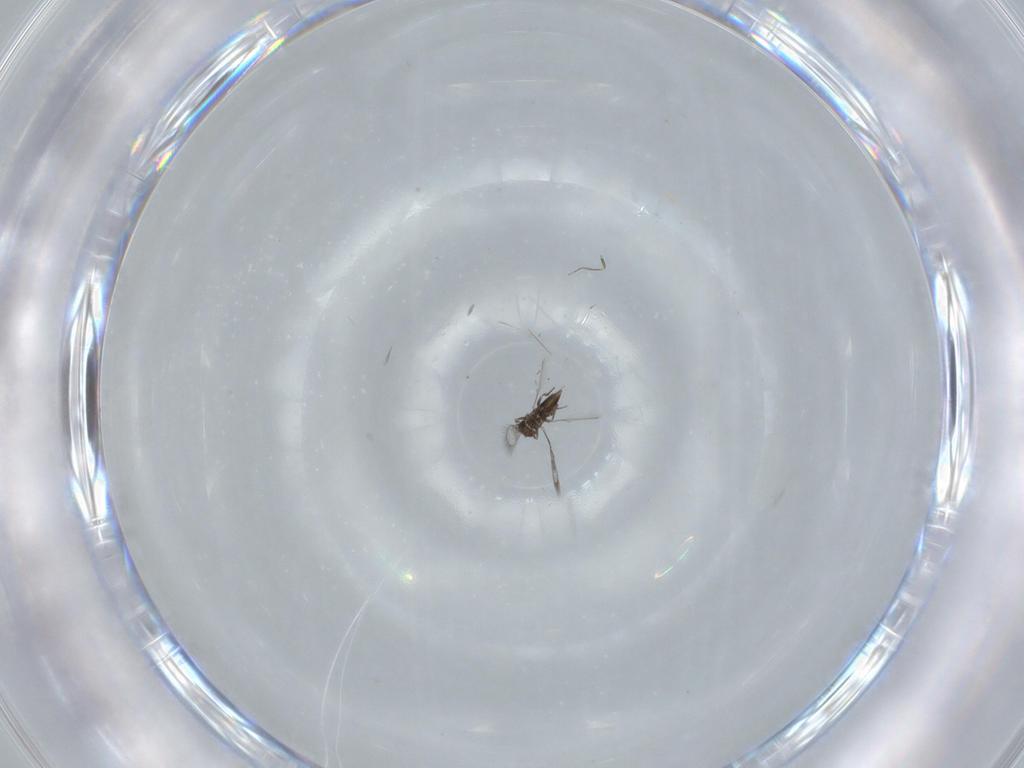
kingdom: Animalia
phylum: Arthropoda
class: Insecta
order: Hymenoptera
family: Trichogrammatidae
